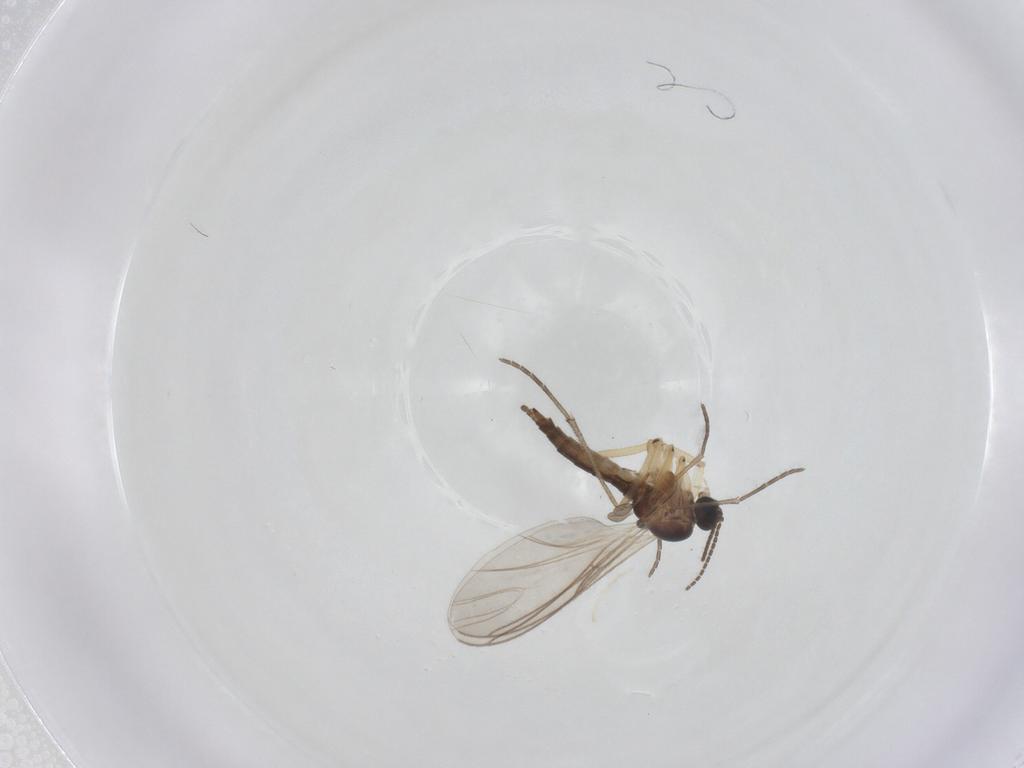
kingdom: Animalia
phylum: Arthropoda
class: Insecta
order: Diptera
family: Sciaridae
